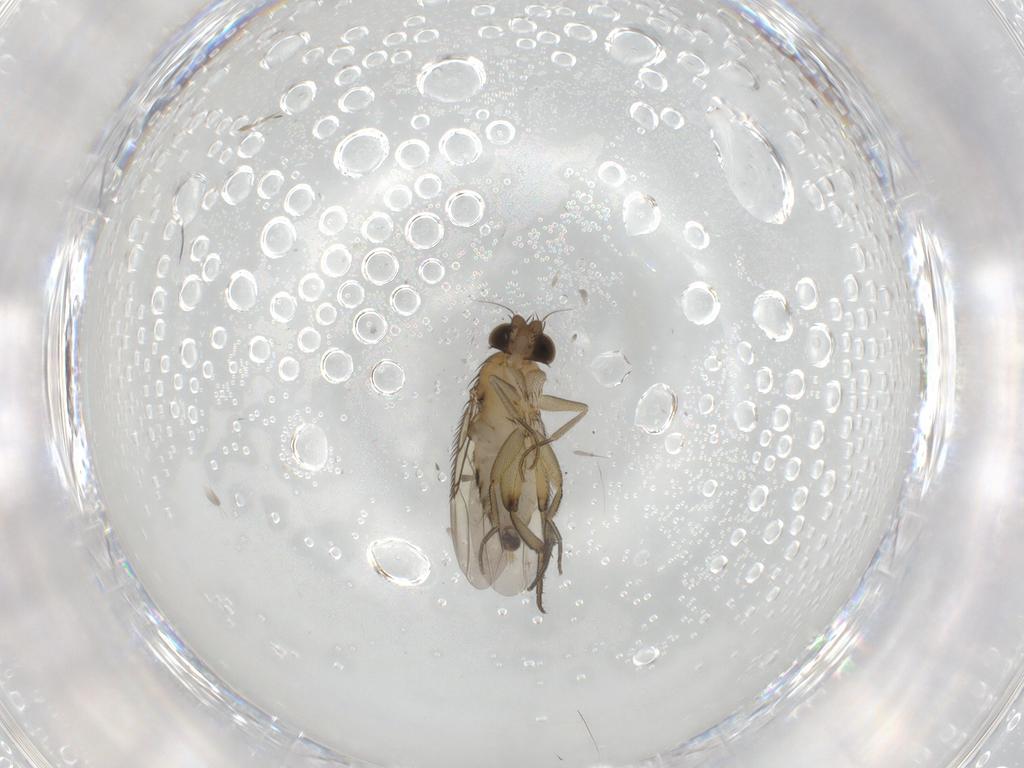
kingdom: Animalia
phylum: Arthropoda
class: Insecta
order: Diptera
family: Phoridae
